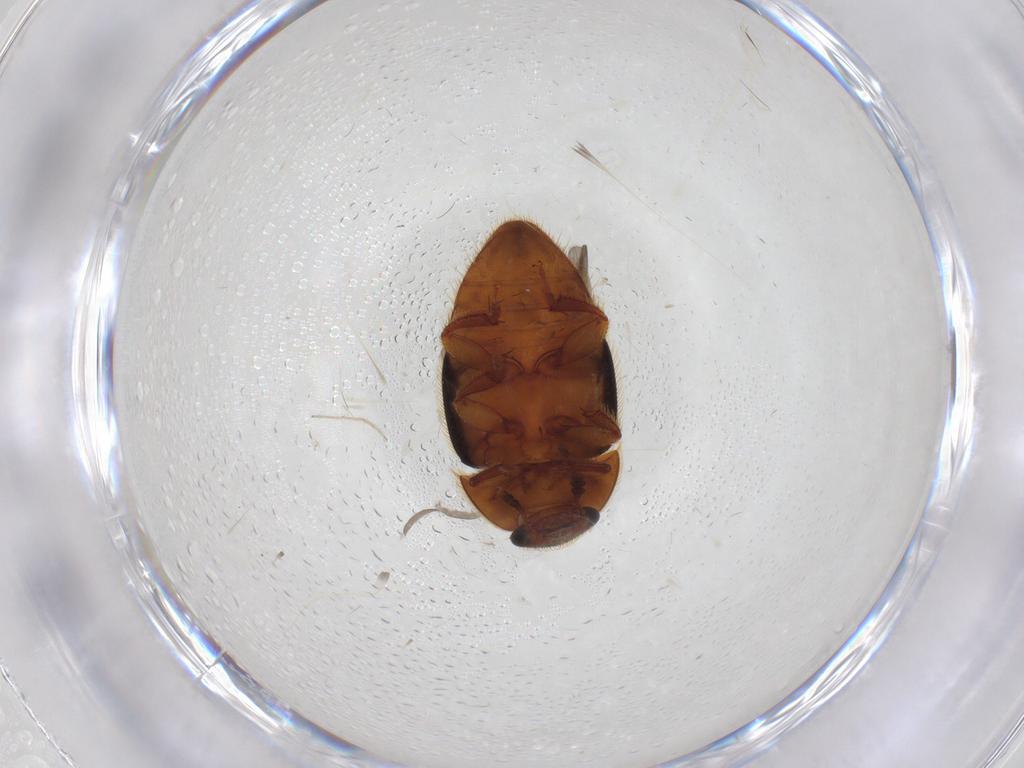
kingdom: Animalia
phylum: Arthropoda
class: Insecta
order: Coleoptera
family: Nitidulidae
